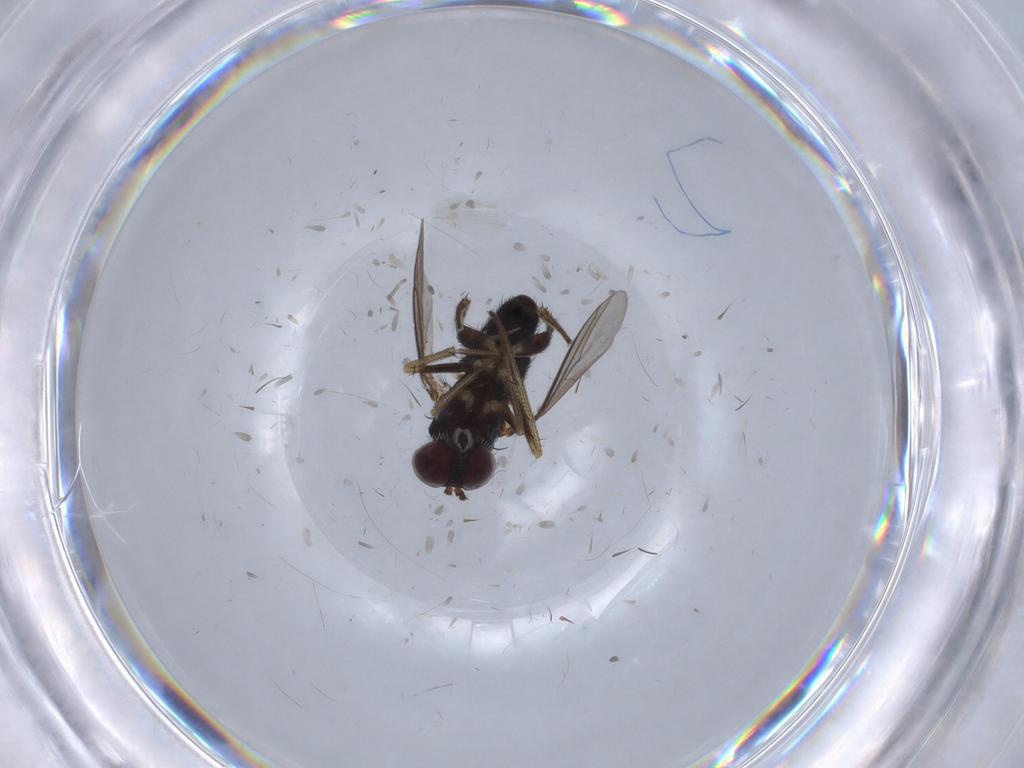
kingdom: Animalia
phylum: Arthropoda
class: Insecta
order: Diptera
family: Dolichopodidae
